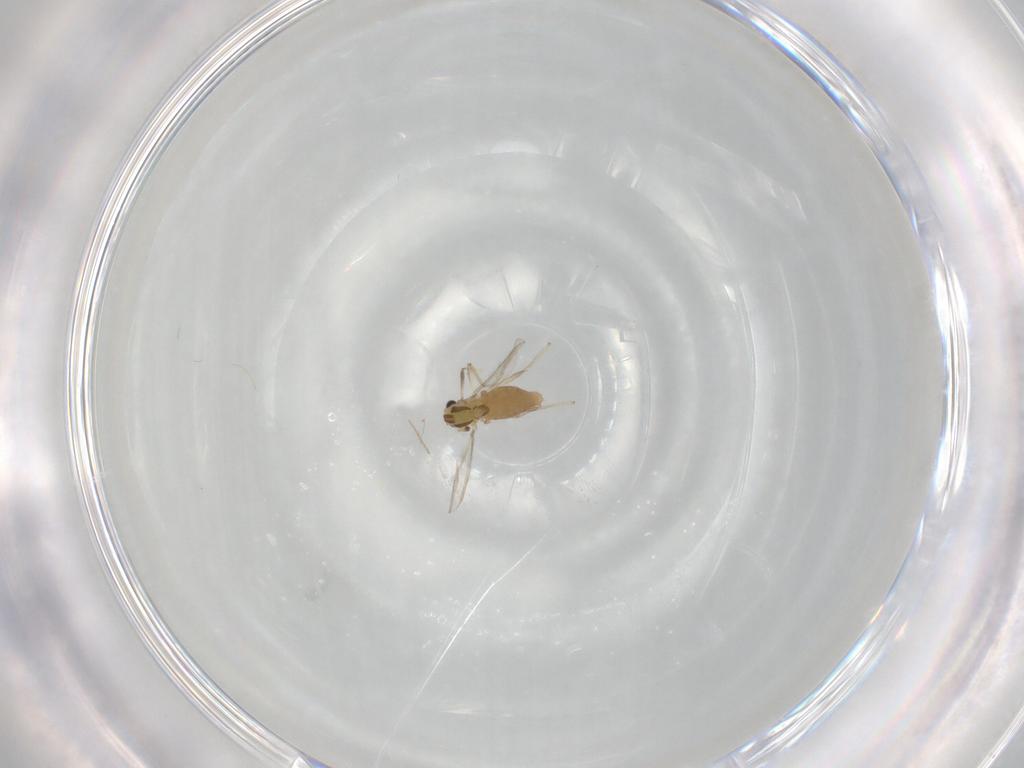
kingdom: Animalia
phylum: Arthropoda
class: Insecta
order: Diptera
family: Chironomidae
